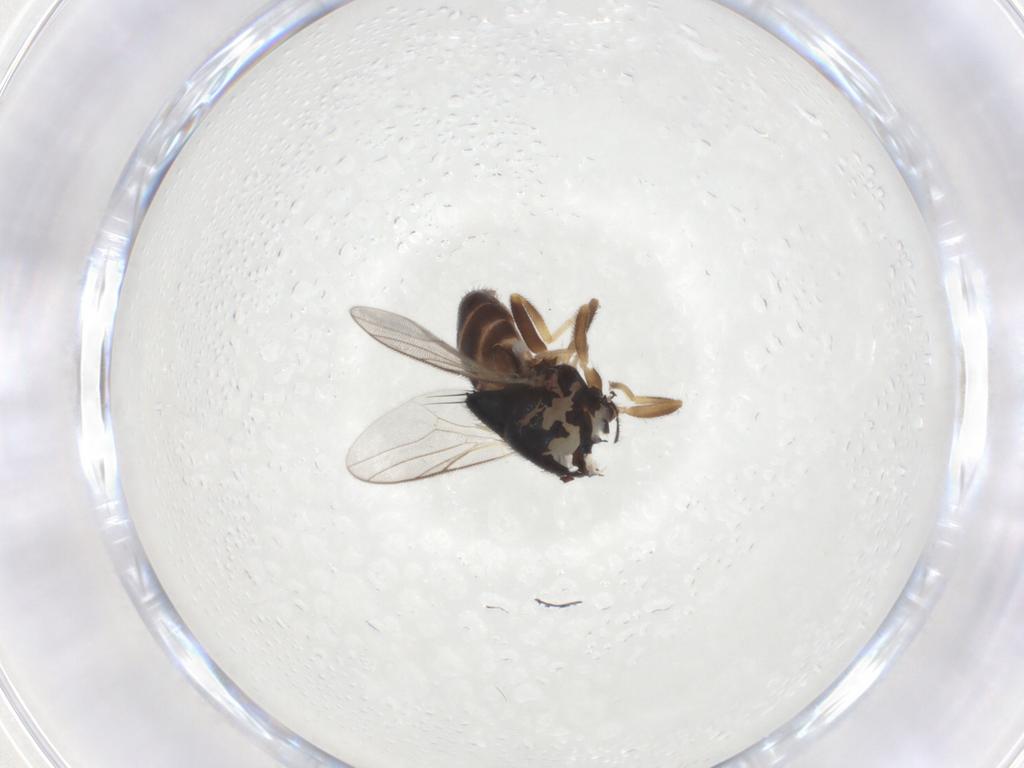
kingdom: Animalia
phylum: Arthropoda
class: Insecta
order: Diptera
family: Chloropidae
